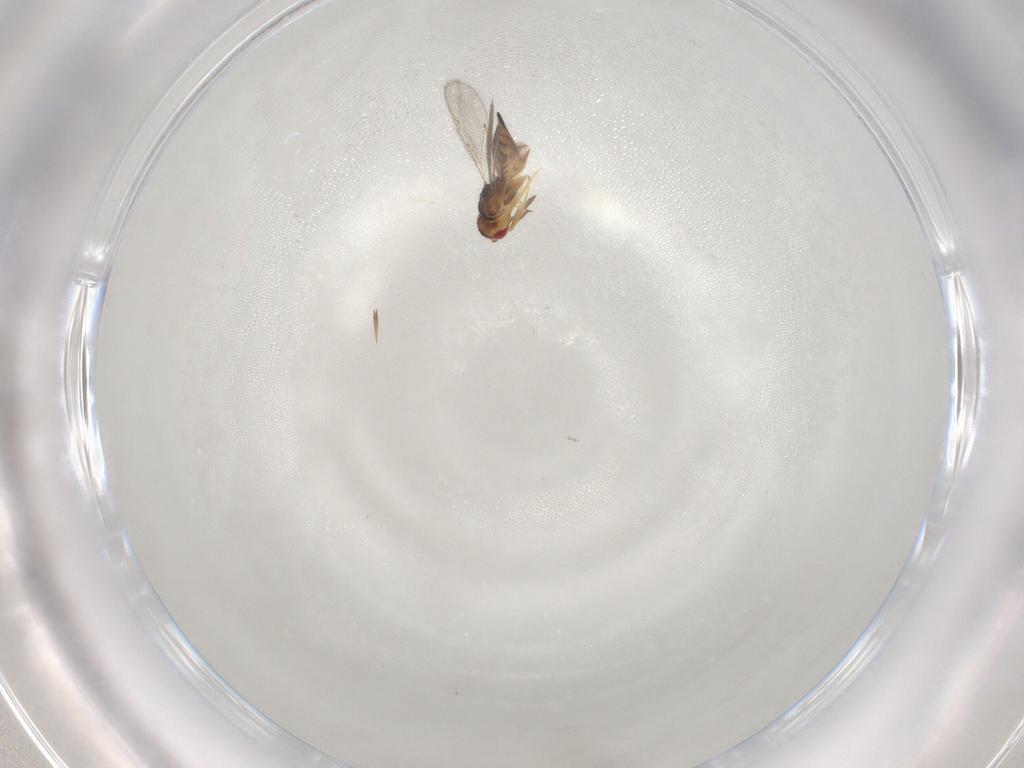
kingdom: Animalia
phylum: Arthropoda
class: Insecta
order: Hymenoptera
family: Eulophidae
